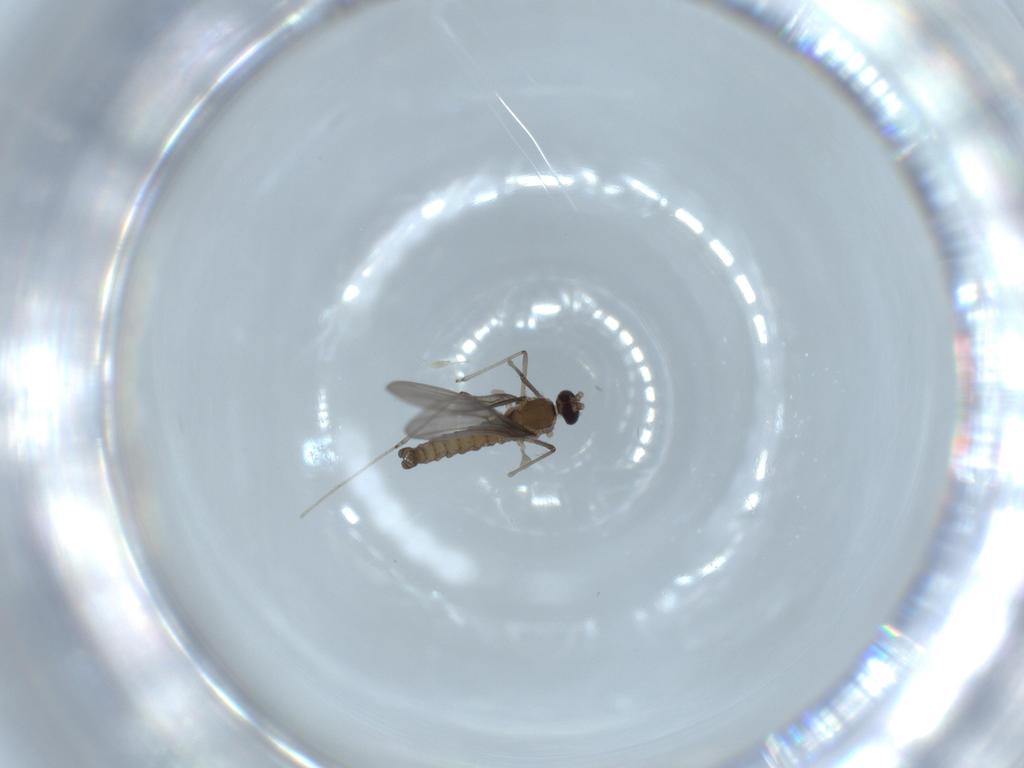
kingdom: Animalia
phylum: Arthropoda
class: Insecta
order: Diptera
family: Cecidomyiidae
